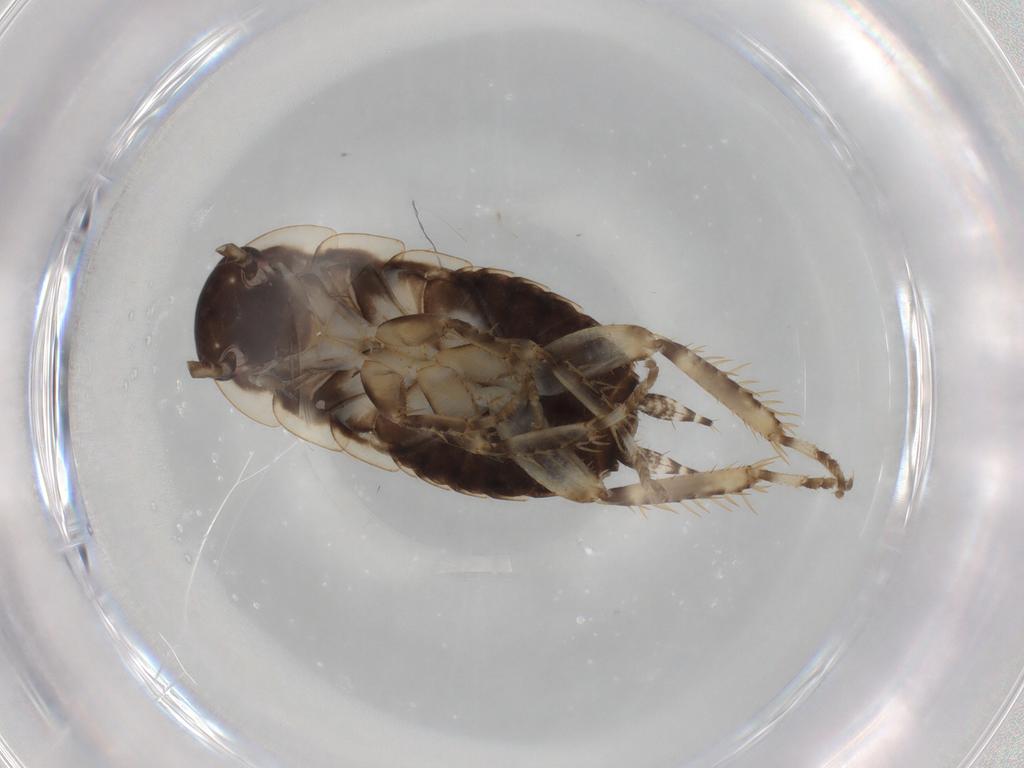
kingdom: Animalia
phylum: Arthropoda
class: Insecta
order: Blattodea
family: Blaberidae
